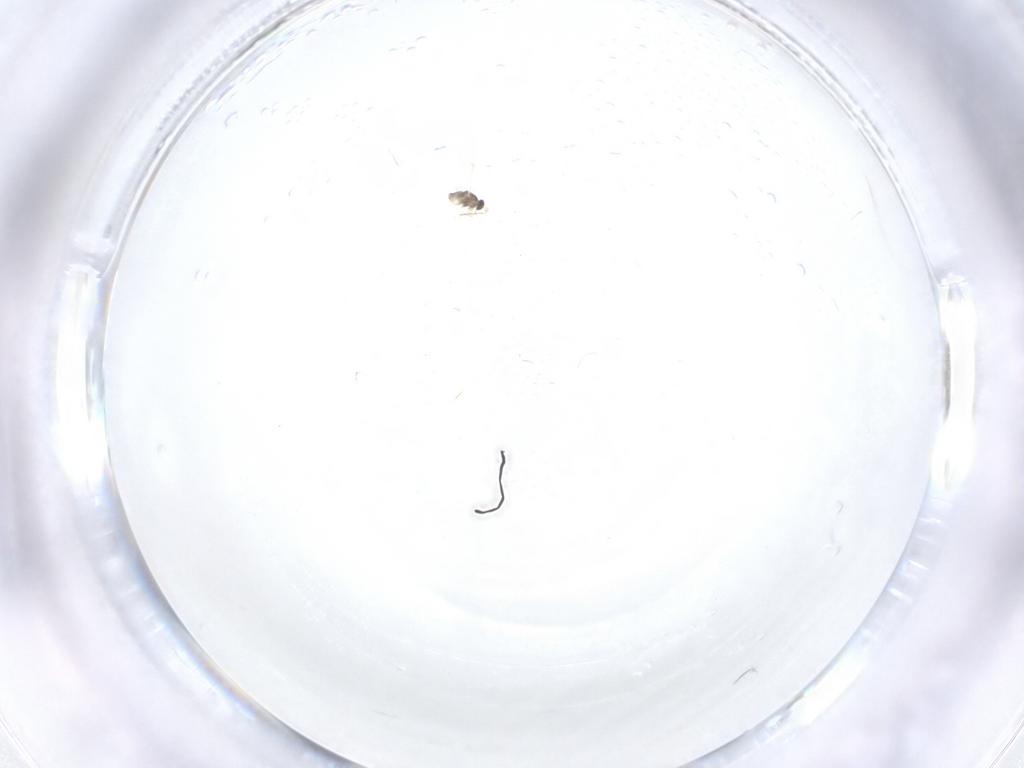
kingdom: Animalia
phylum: Arthropoda
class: Insecta
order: Hymenoptera
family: Mymaridae
